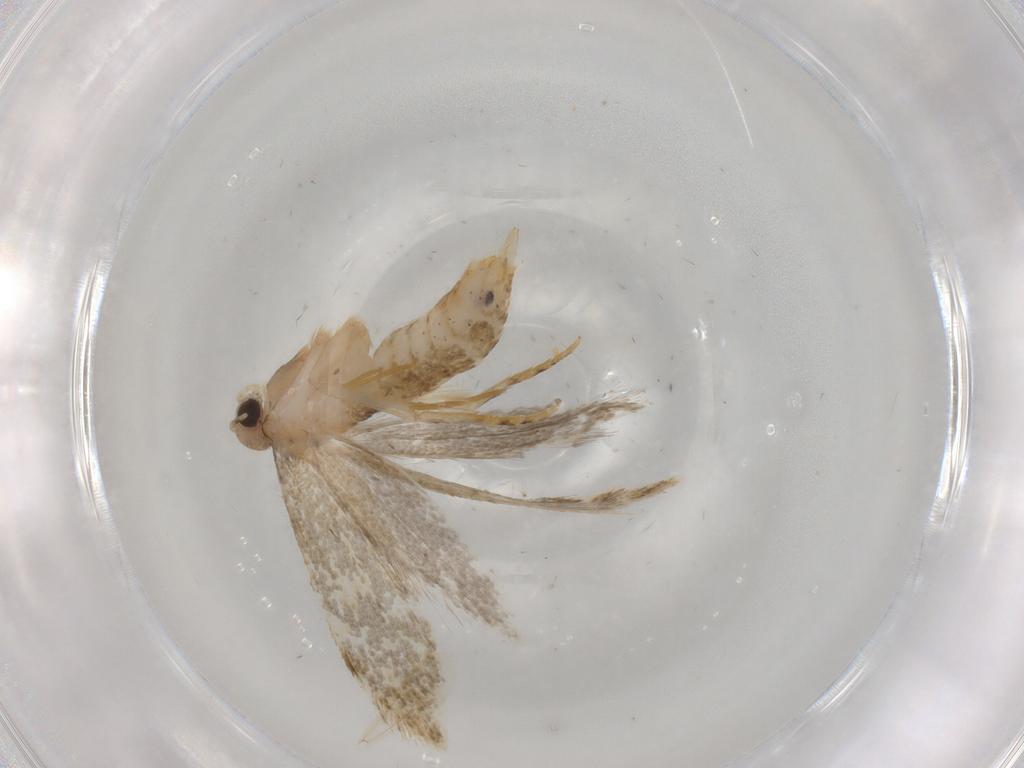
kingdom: Animalia
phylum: Arthropoda
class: Insecta
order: Lepidoptera
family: Tineidae
